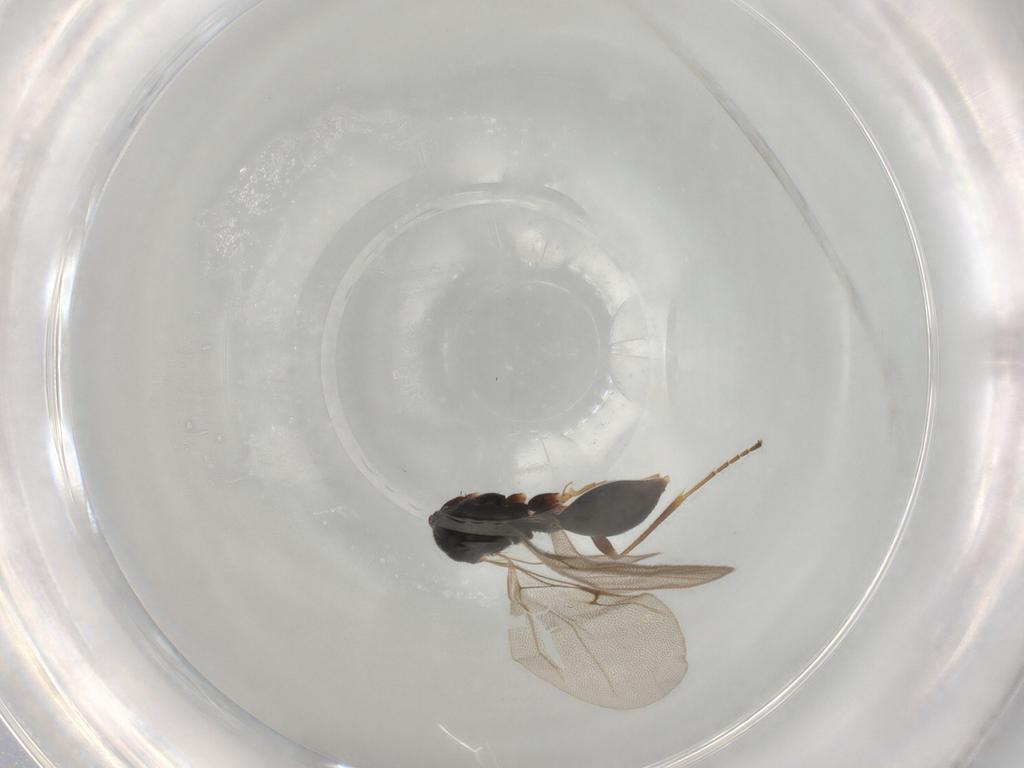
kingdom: Animalia
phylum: Arthropoda
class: Insecta
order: Hymenoptera
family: Diapriidae
